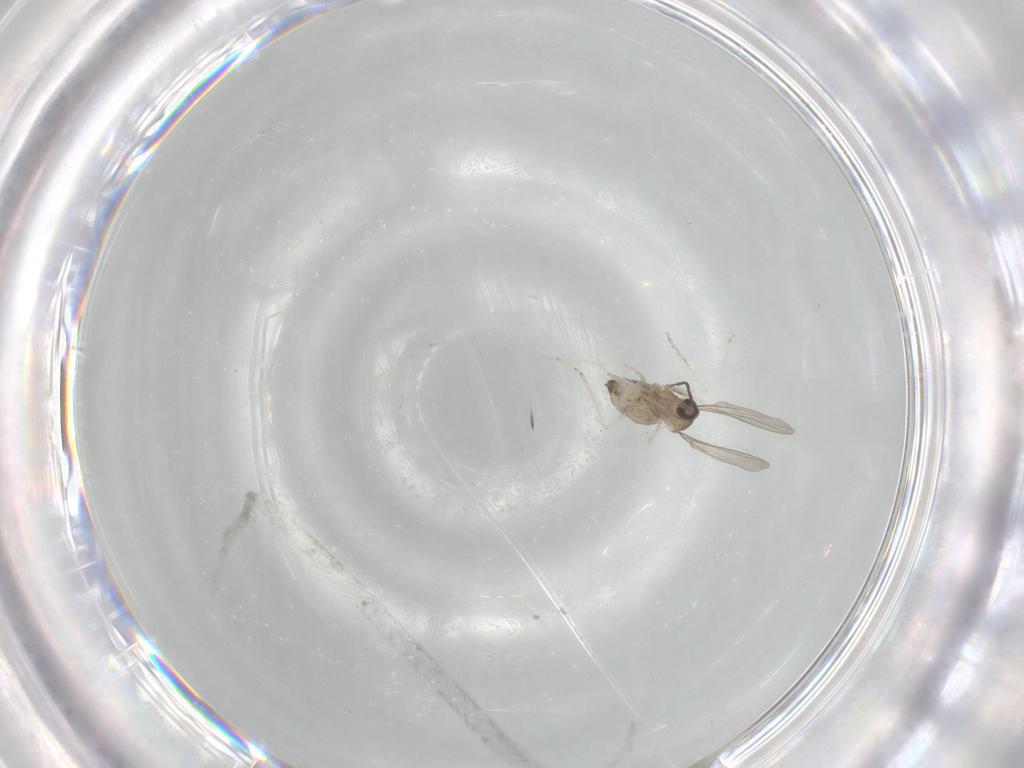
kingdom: Animalia
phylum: Arthropoda
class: Insecta
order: Diptera
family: Cecidomyiidae
